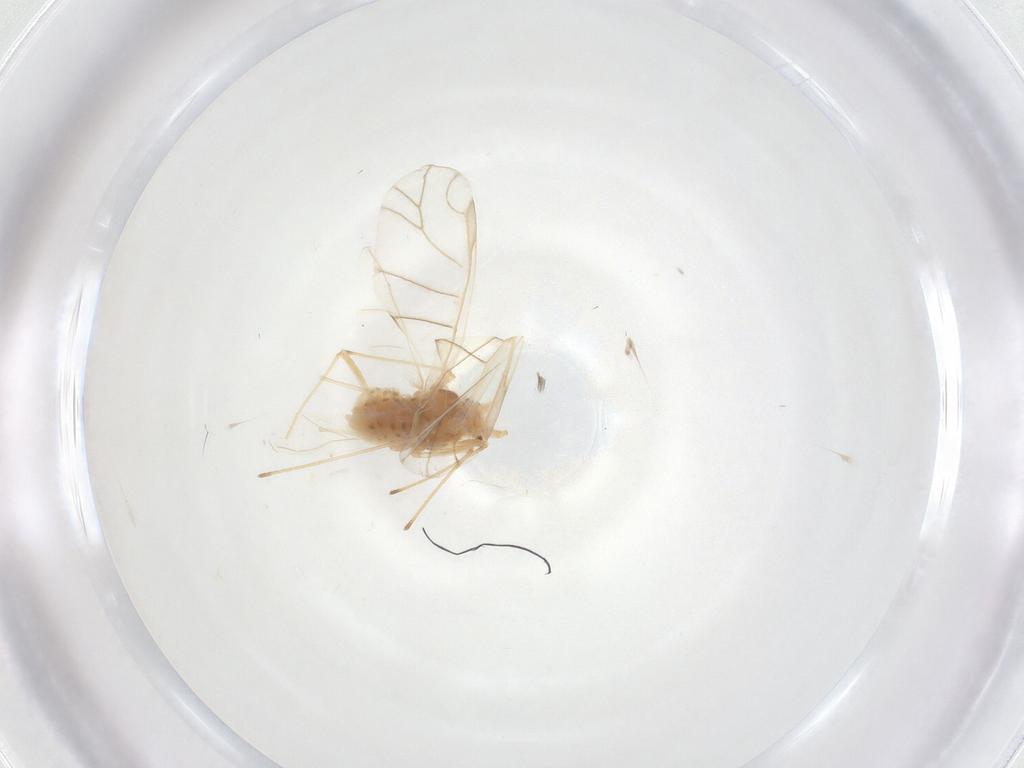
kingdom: Animalia
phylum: Arthropoda
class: Insecta
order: Hemiptera
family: Aphididae
